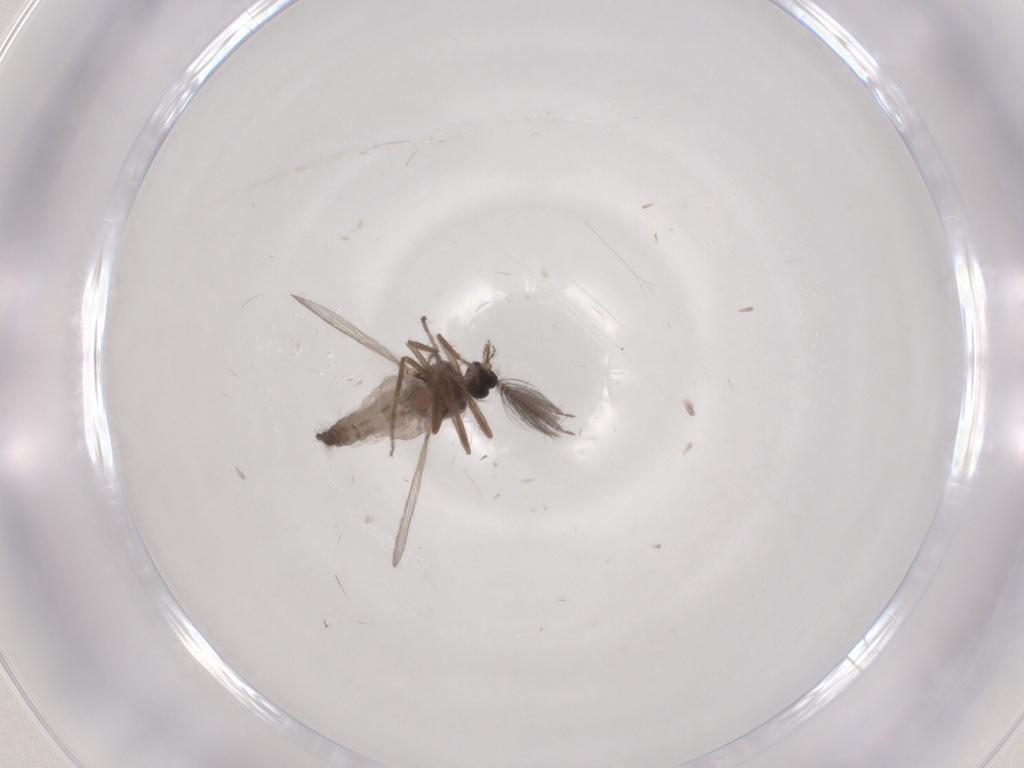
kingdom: Animalia
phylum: Arthropoda
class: Insecta
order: Diptera
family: Ceratopogonidae
